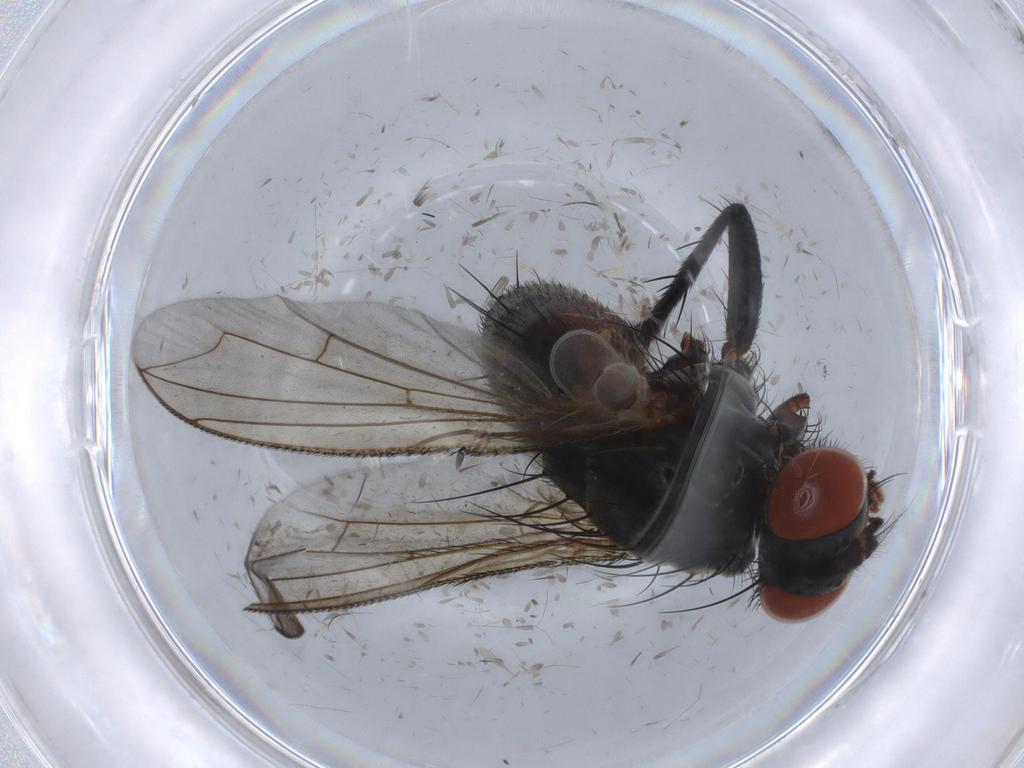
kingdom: Animalia
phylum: Arthropoda
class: Insecta
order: Diptera
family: Sarcophagidae
